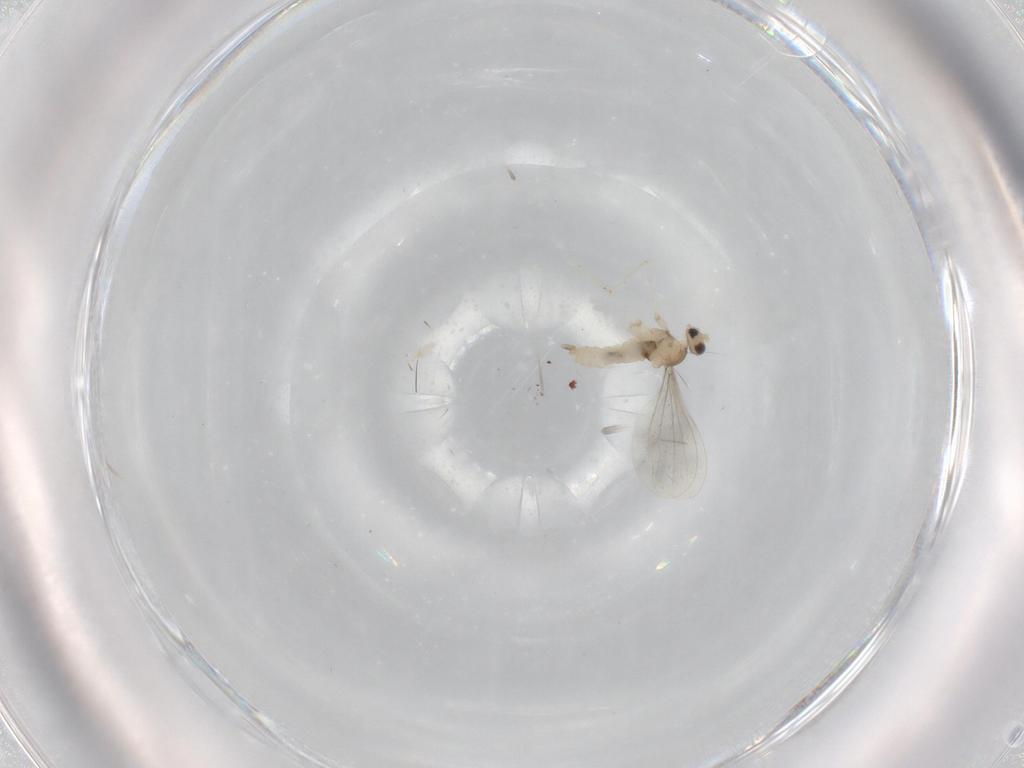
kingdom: Animalia
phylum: Arthropoda
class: Insecta
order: Diptera
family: Cecidomyiidae
